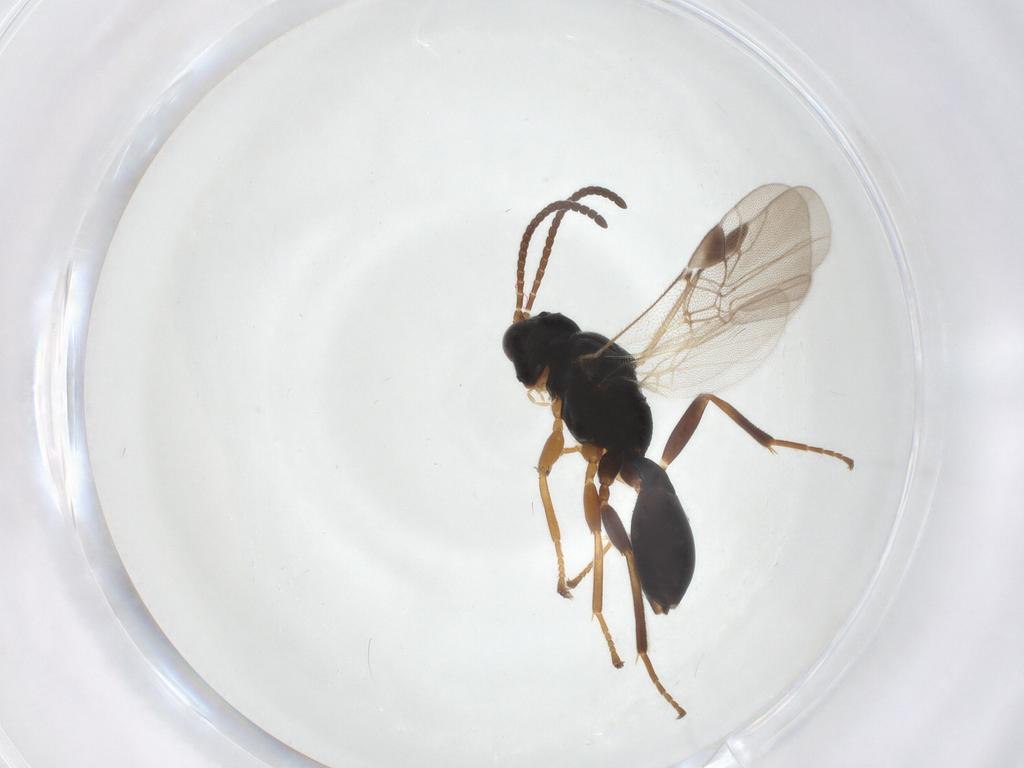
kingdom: Animalia
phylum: Arthropoda
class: Insecta
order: Hymenoptera
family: Braconidae
